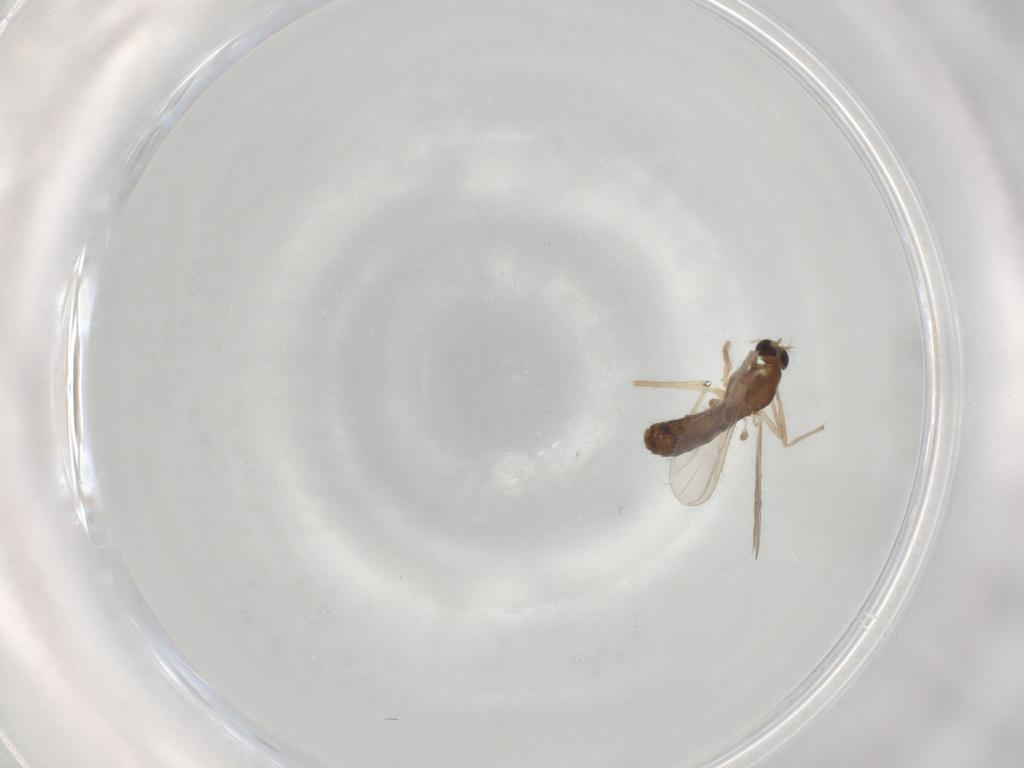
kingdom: Animalia
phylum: Arthropoda
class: Insecta
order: Diptera
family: Chironomidae
